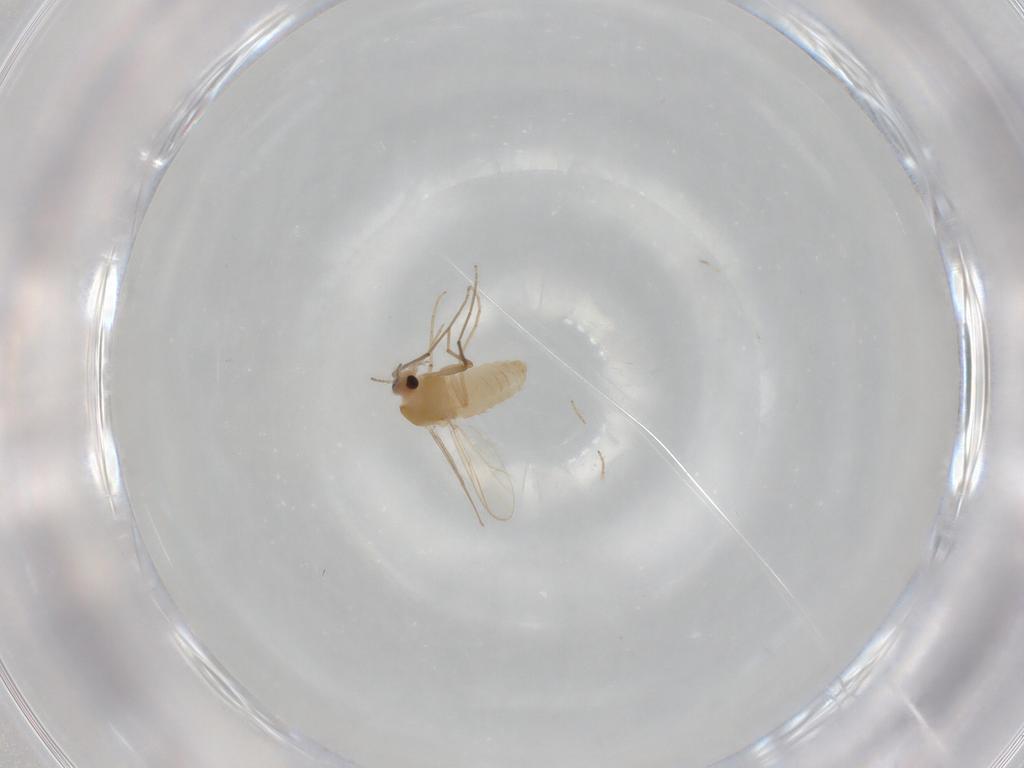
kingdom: Animalia
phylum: Arthropoda
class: Insecta
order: Diptera
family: Chironomidae
